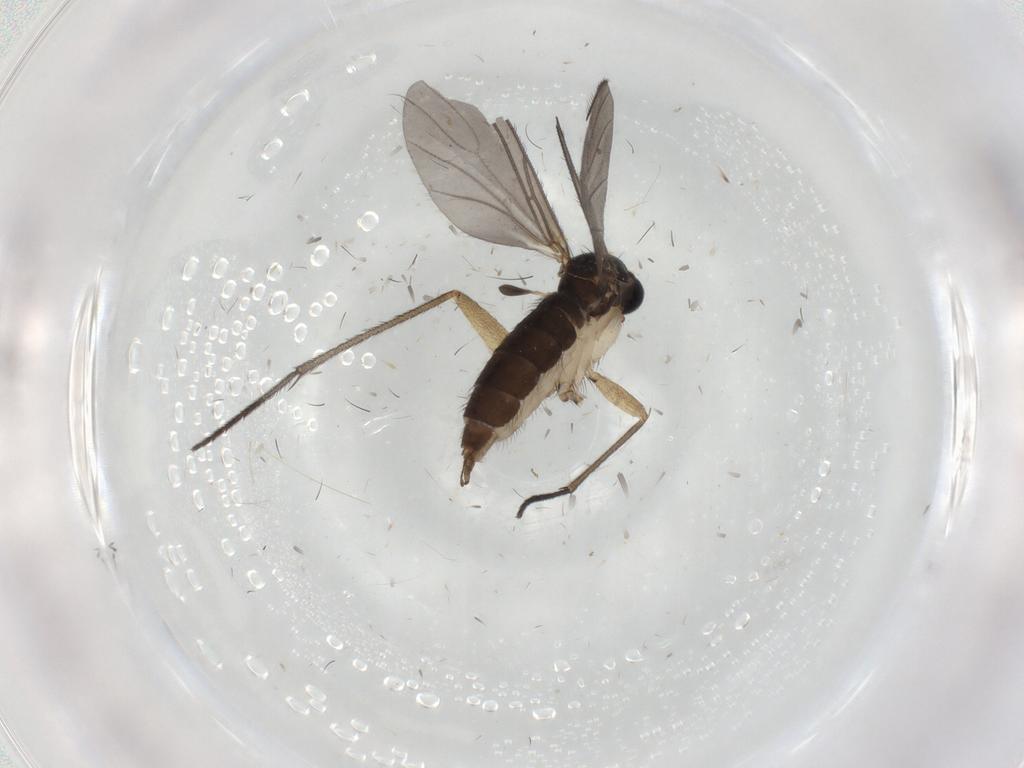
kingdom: Animalia
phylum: Arthropoda
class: Insecta
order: Diptera
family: Sciaridae
